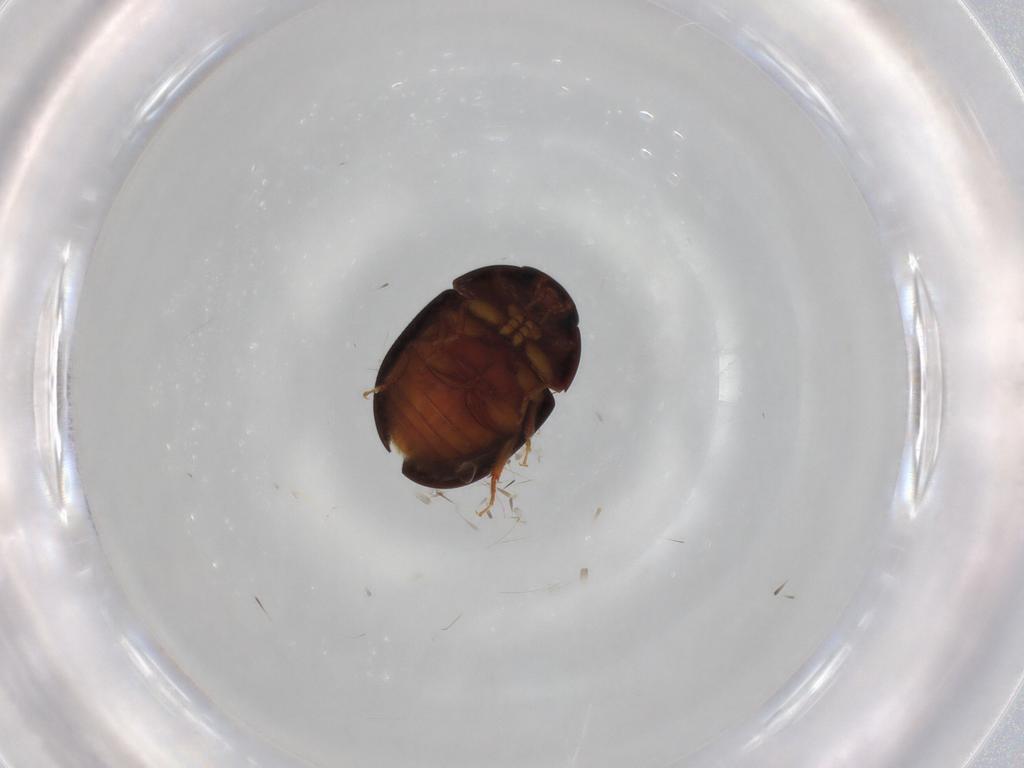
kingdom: Animalia
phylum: Arthropoda
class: Insecta
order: Coleoptera
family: Phalacridae
